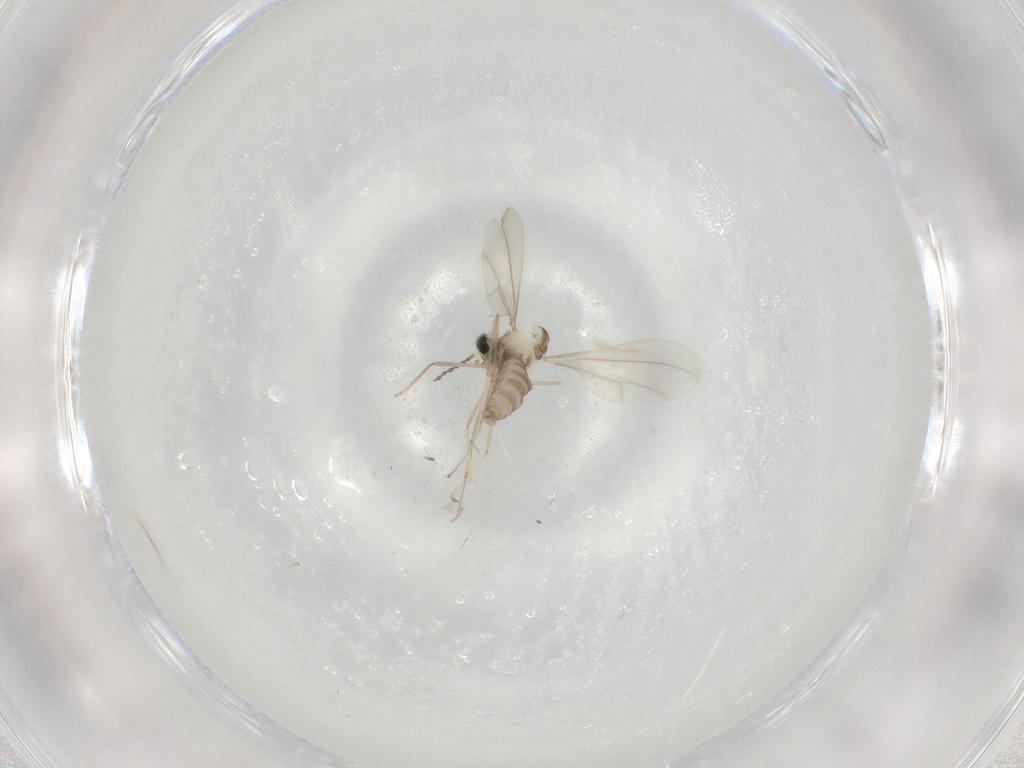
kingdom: Animalia
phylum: Arthropoda
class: Insecta
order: Diptera
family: Cecidomyiidae
